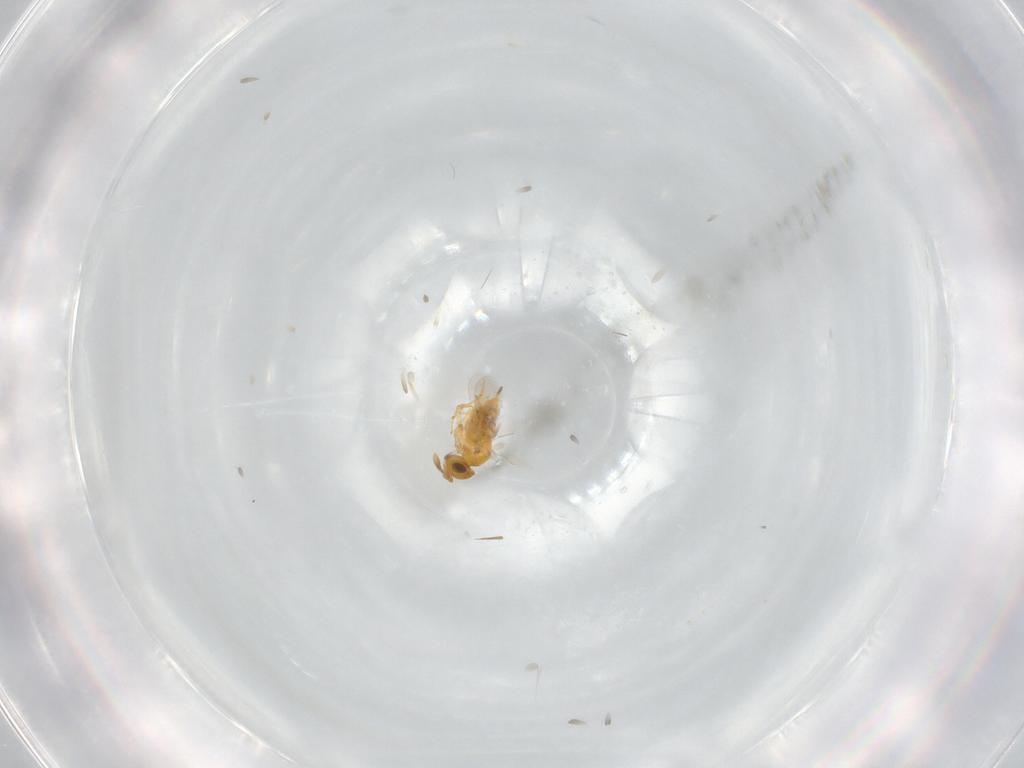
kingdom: Animalia
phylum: Arthropoda
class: Insecta
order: Hymenoptera
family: Encyrtidae
